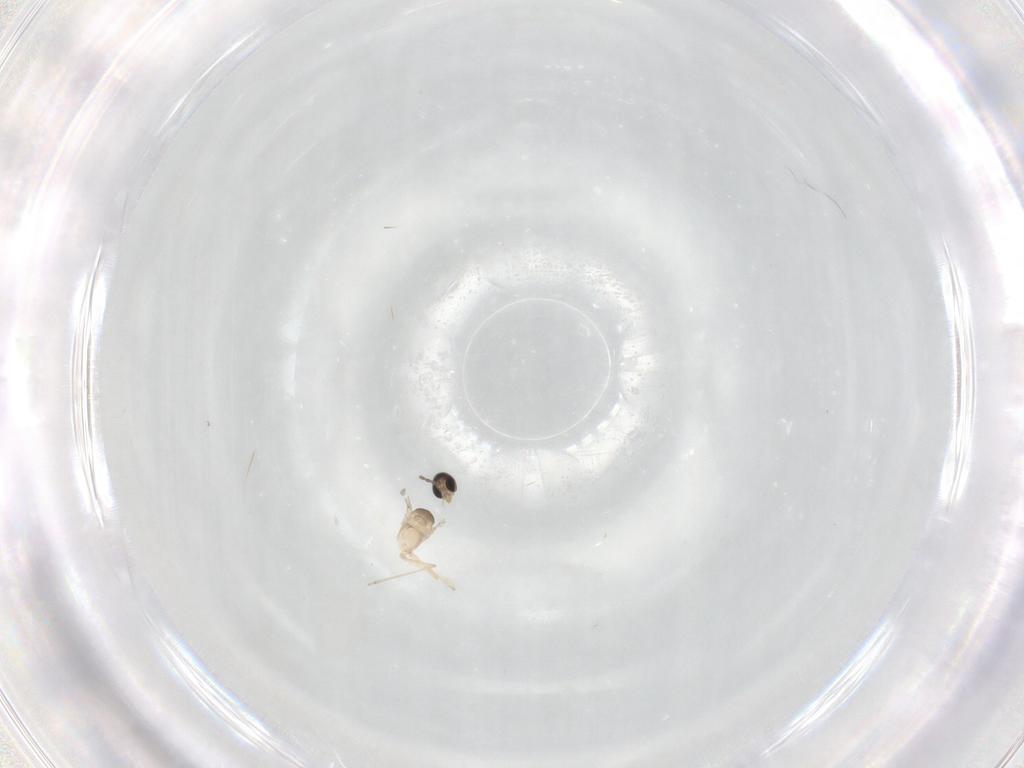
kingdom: Animalia
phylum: Arthropoda
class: Insecta
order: Diptera
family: Cecidomyiidae
